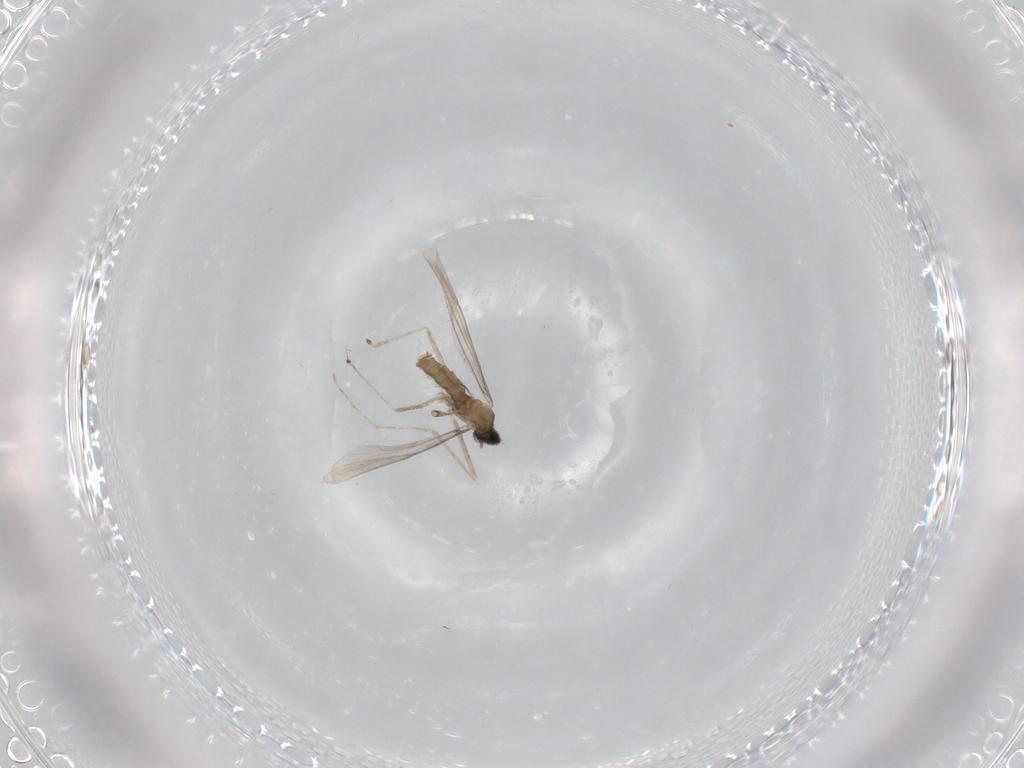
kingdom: Animalia
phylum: Arthropoda
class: Insecta
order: Diptera
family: Cecidomyiidae
